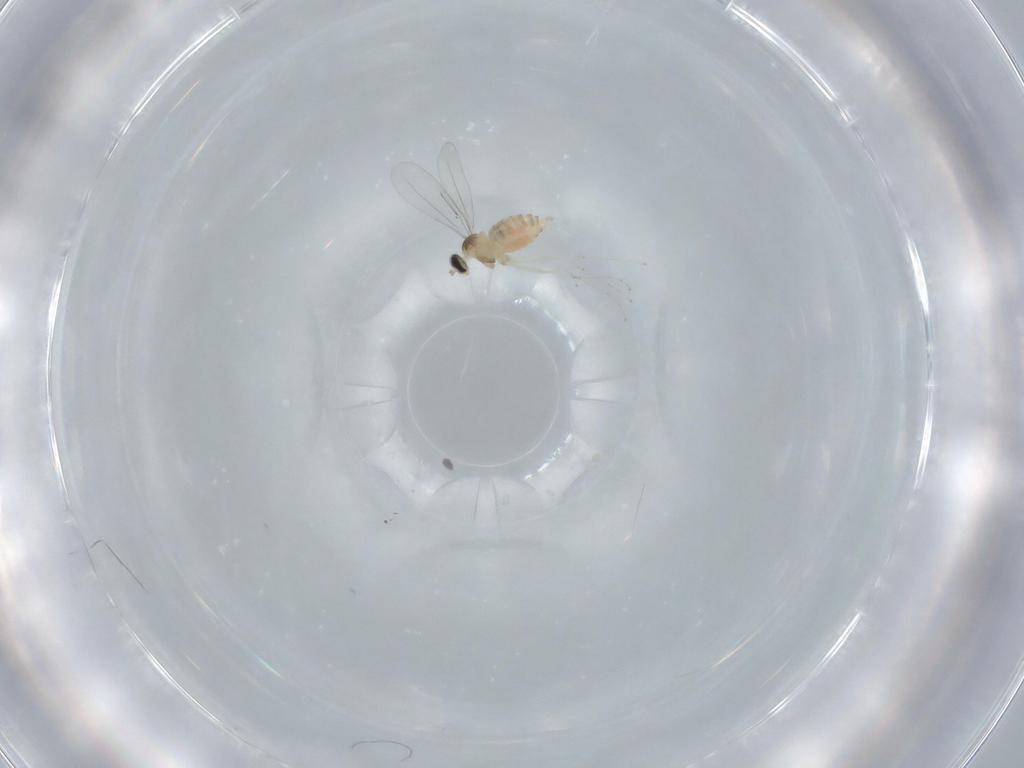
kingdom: Animalia
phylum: Arthropoda
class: Insecta
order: Diptera
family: Cecidomyiidae
